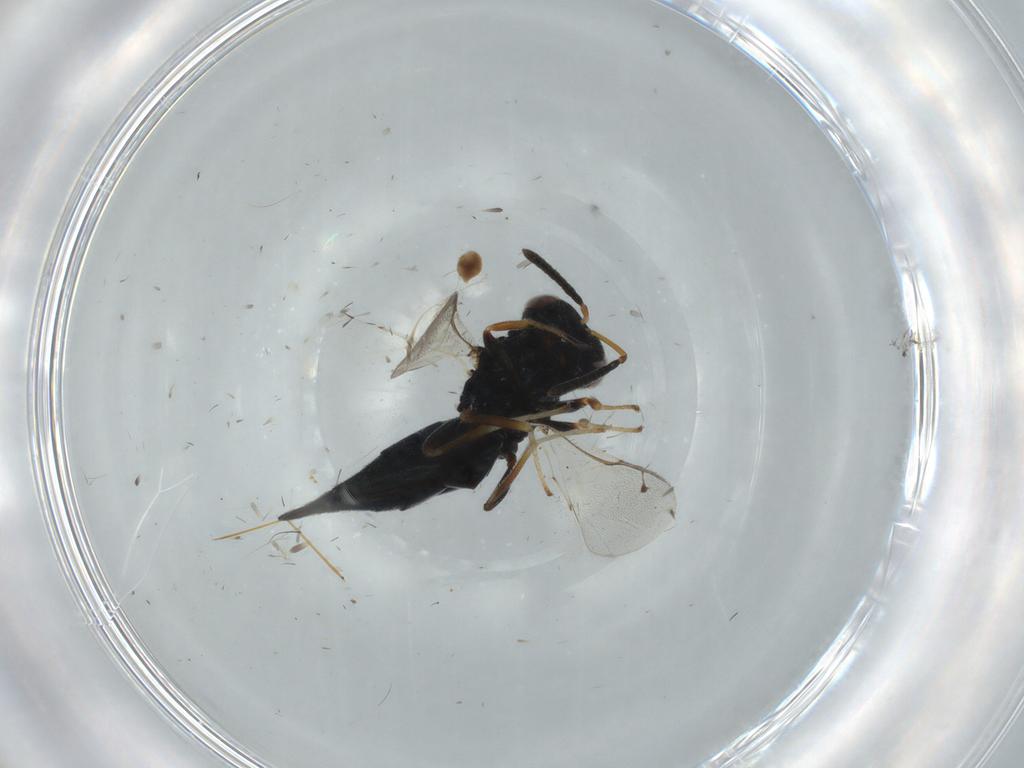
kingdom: Animalia
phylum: Arthropoda
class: Insecta
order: Hymenoptera
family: Pteromalidae
